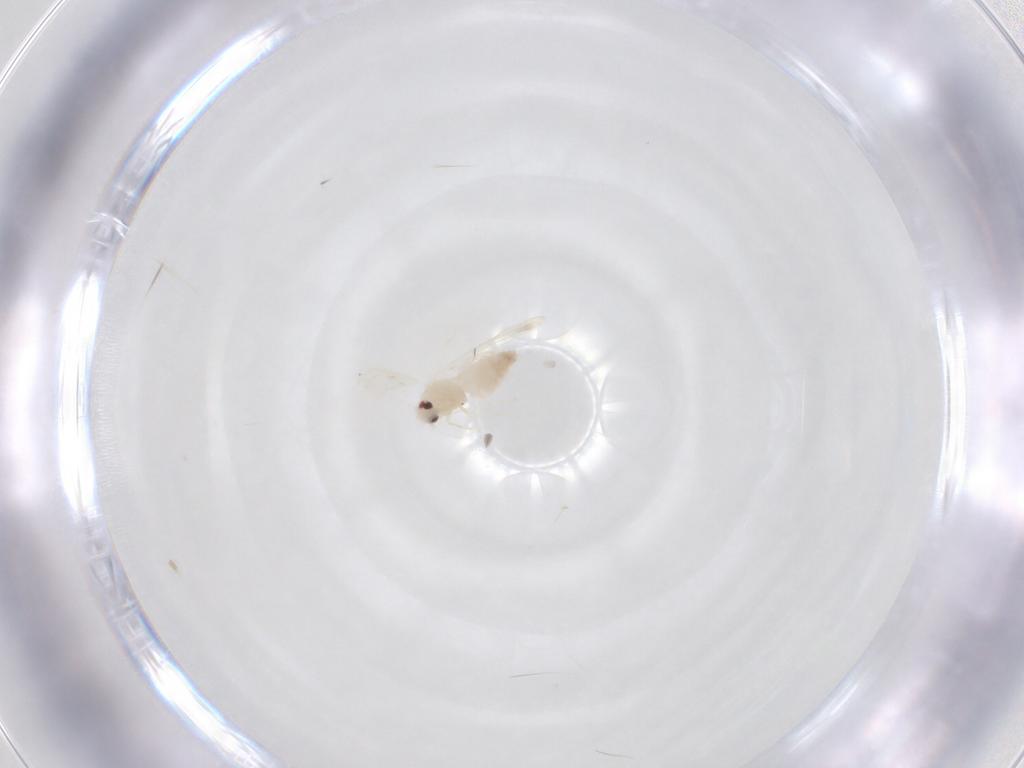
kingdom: Animalia
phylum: Arthropoda
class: Insecta
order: Hemiptera
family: Aleyrodidae
